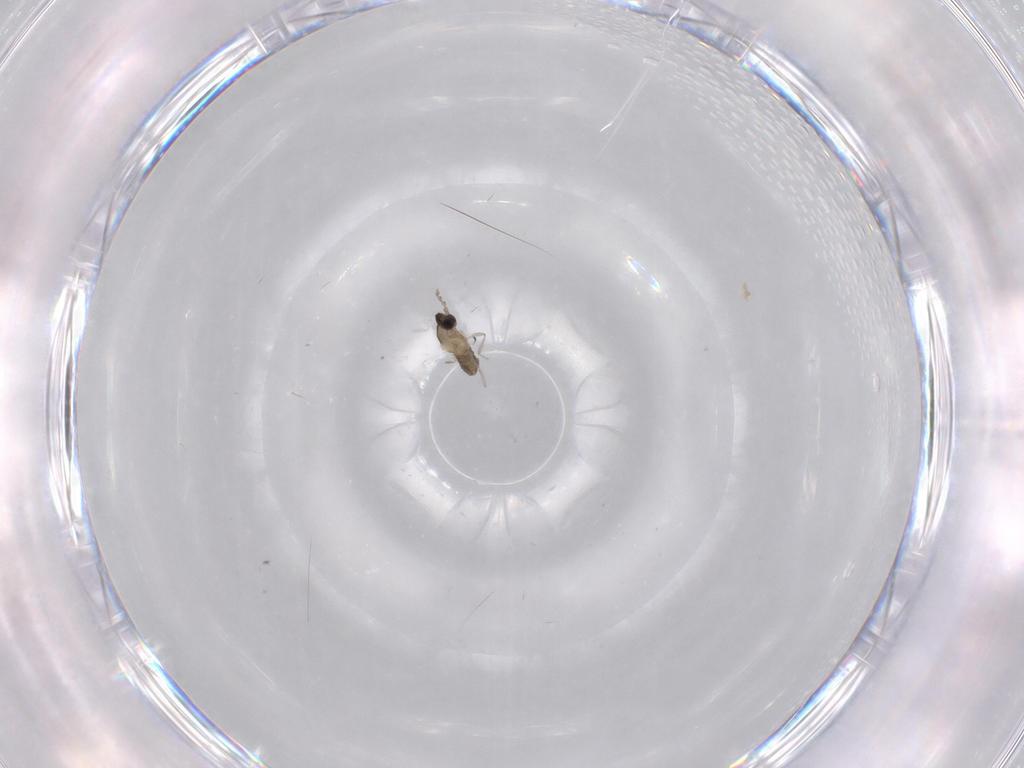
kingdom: Animalia
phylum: Arthropoda
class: Insecta
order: Diptera
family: Cecidomyiidae
